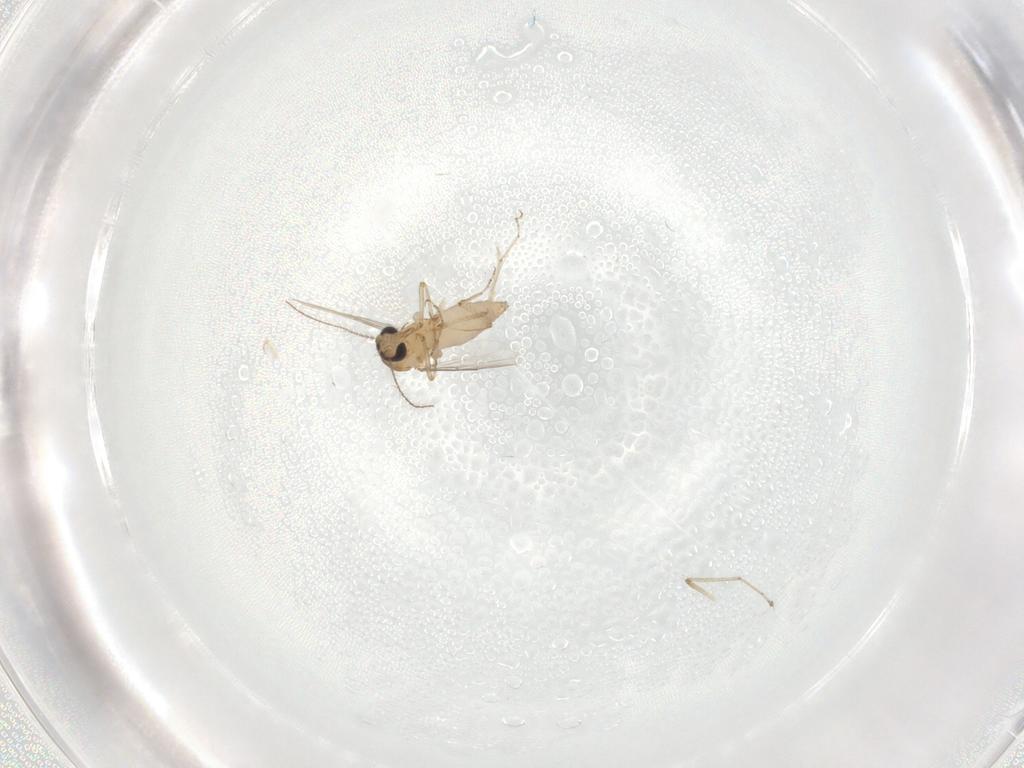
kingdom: Animalia
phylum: Arthropoda
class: Insecta
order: Diptera
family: Ceratopogonidae
